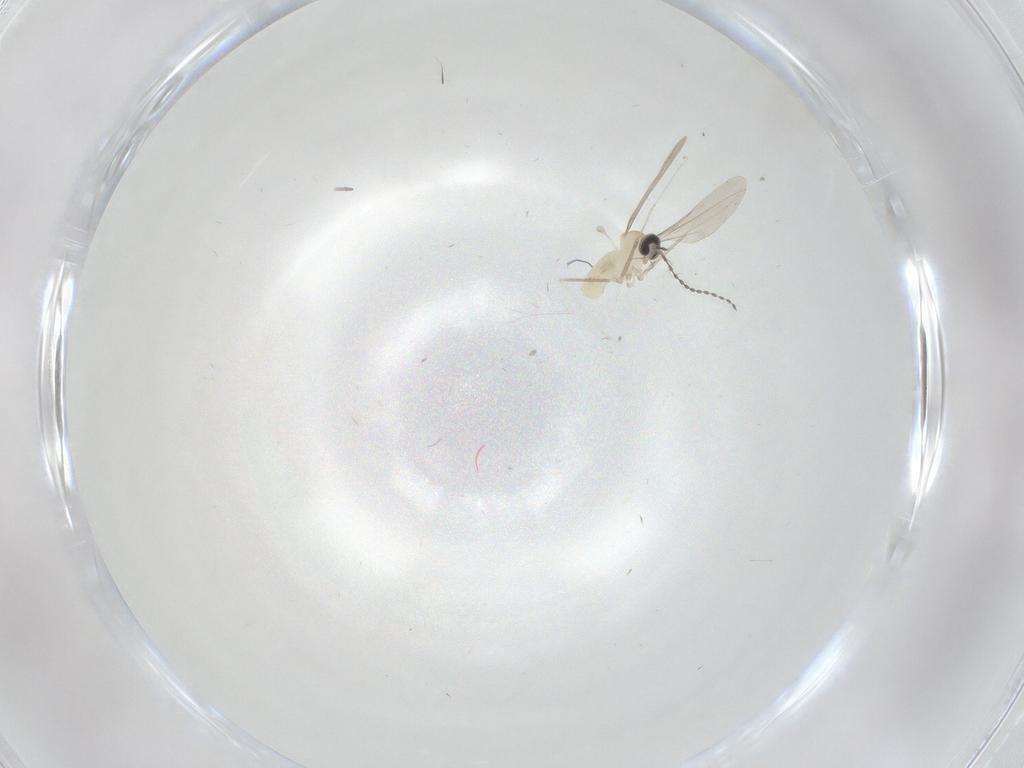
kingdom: Animalia
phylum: Arthropoda
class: Insecta
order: Diptera
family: Cecidomyiidae
